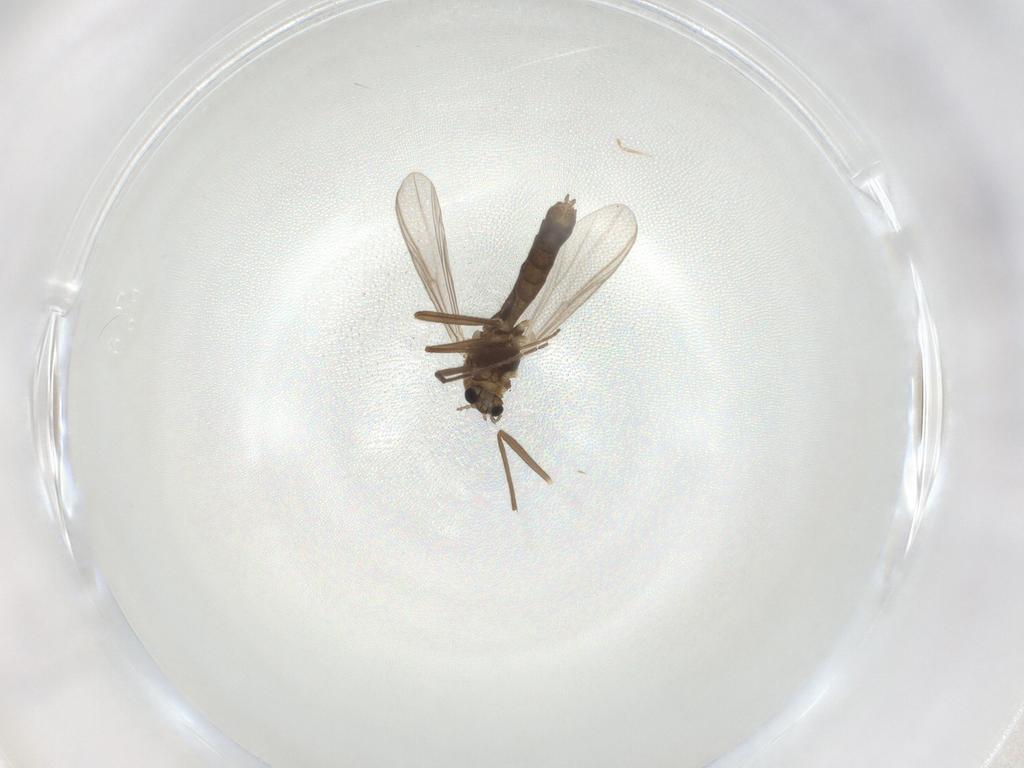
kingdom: Animalia
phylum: Arthropoda
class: Insecta
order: Diptera
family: Chironomidae
